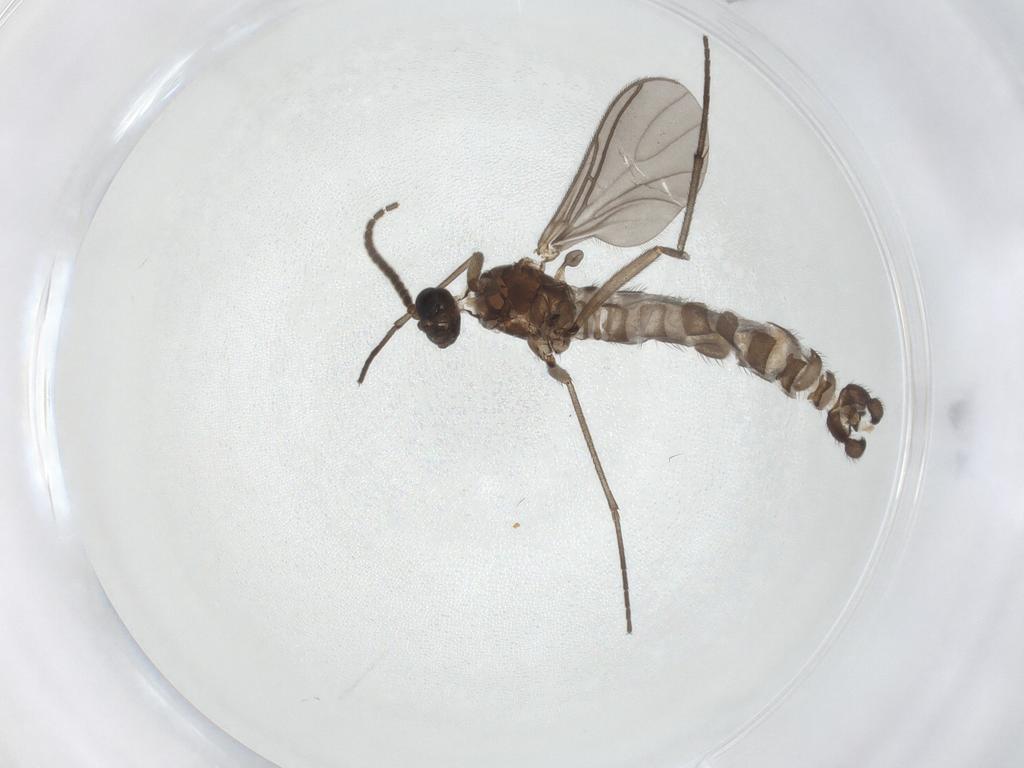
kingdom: Animalia
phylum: Arthropoda
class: Insecta
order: Diptera
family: Sciaridae
